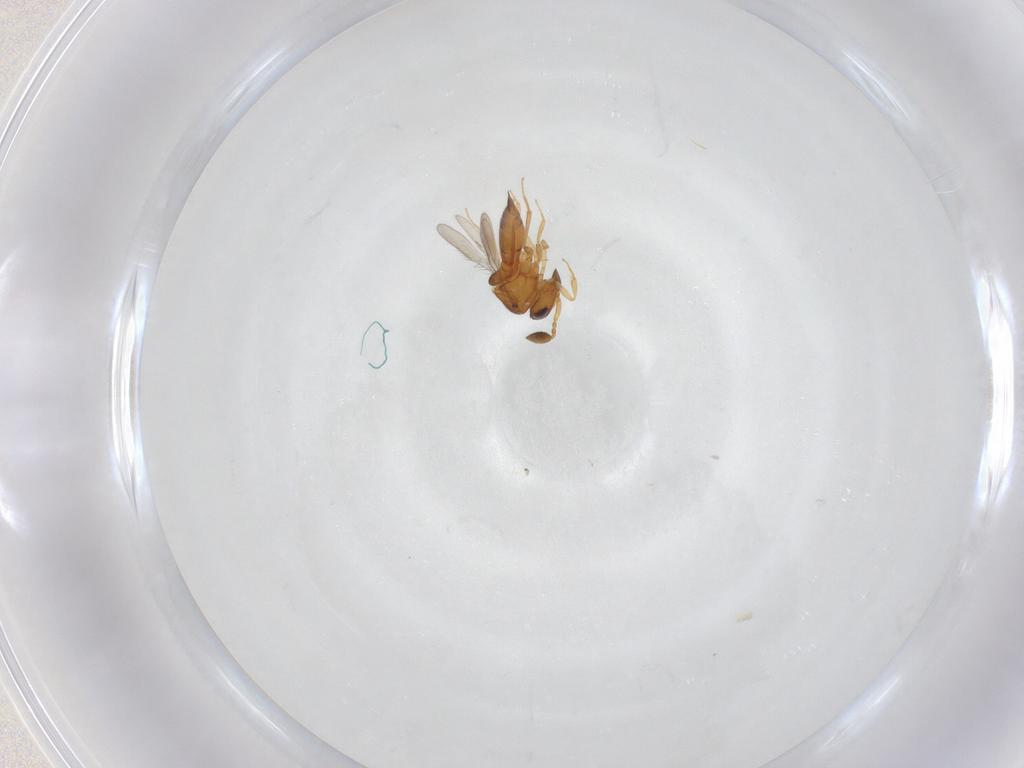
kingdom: Animalia
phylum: Arthropoda
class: Insecta
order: Hymenoptera
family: Scelionidae
